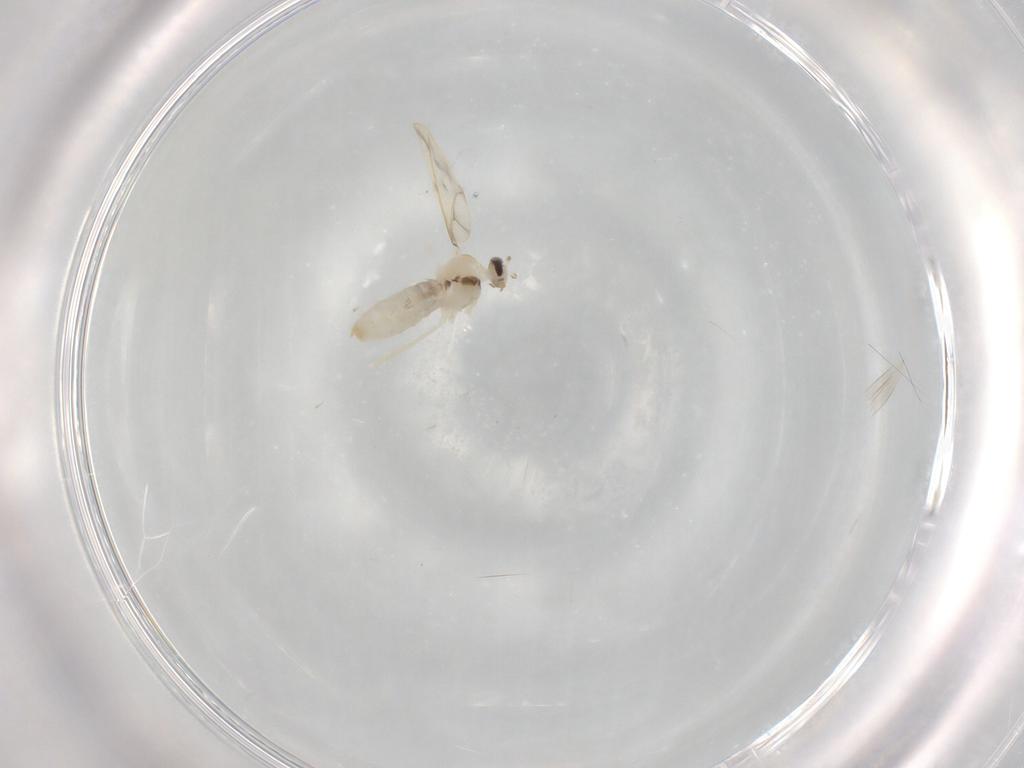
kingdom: Animalia
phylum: Arthropoda
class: Insecta
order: Diptera
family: Cecidomyiidae
